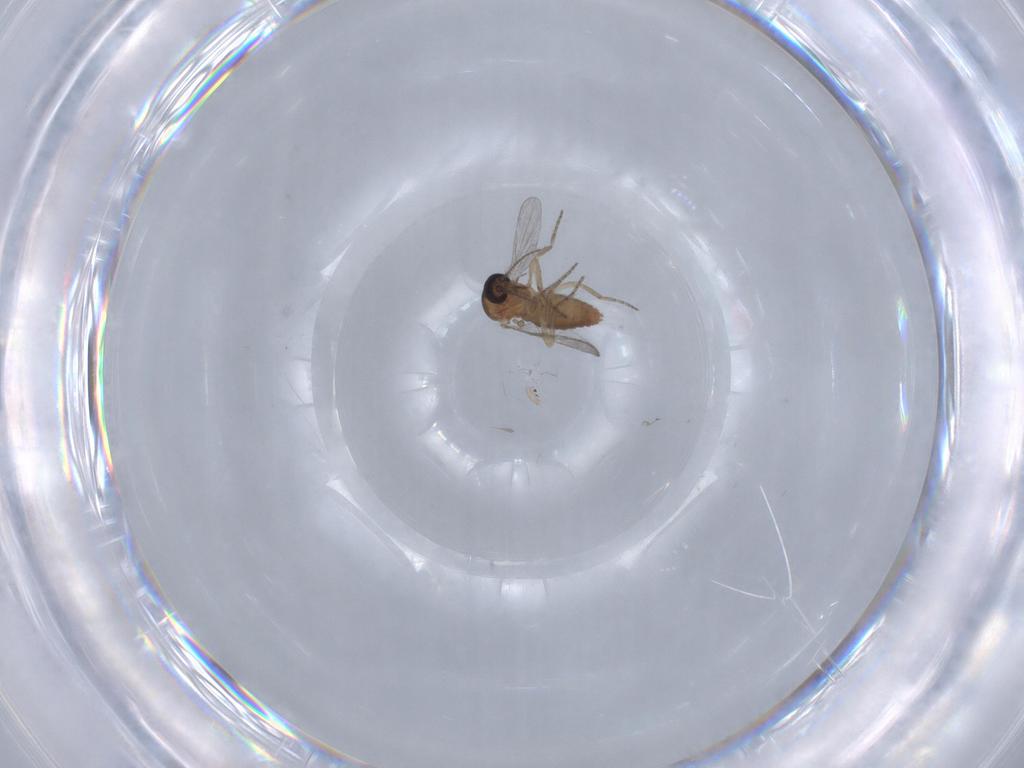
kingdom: Animalia
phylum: Arthropoda
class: Insecta
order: Diptera
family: Ceratopogonidae
